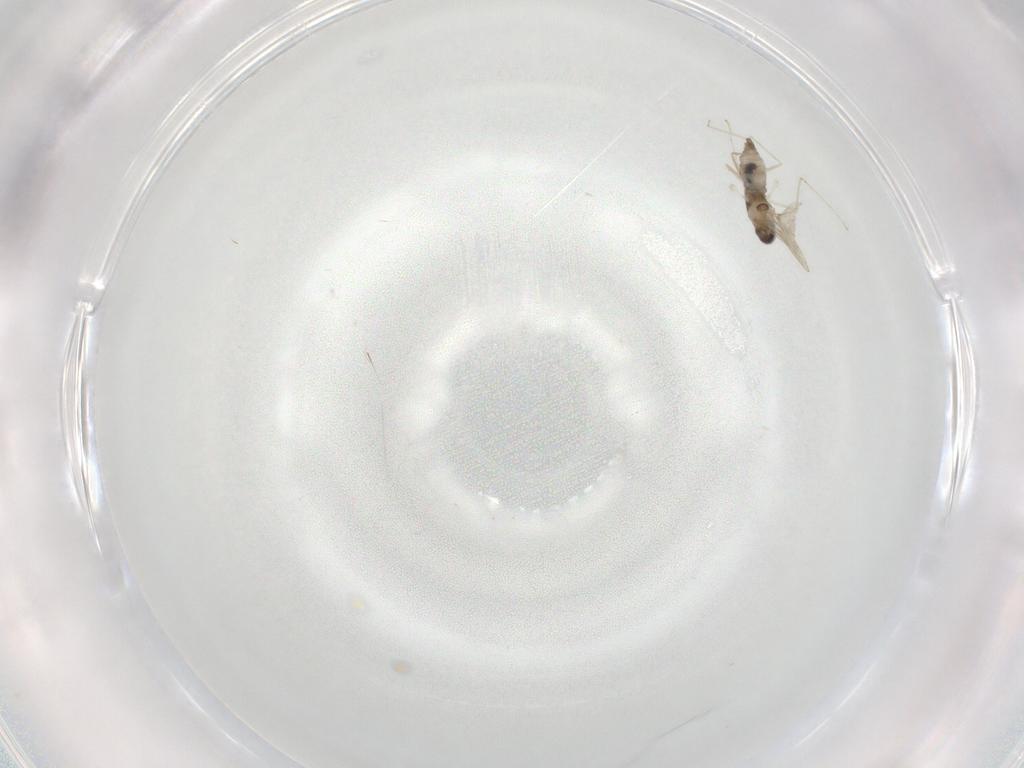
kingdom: Animalia
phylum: Arthropoda
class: Insecta
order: Diptera
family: Cecidomyiidae
